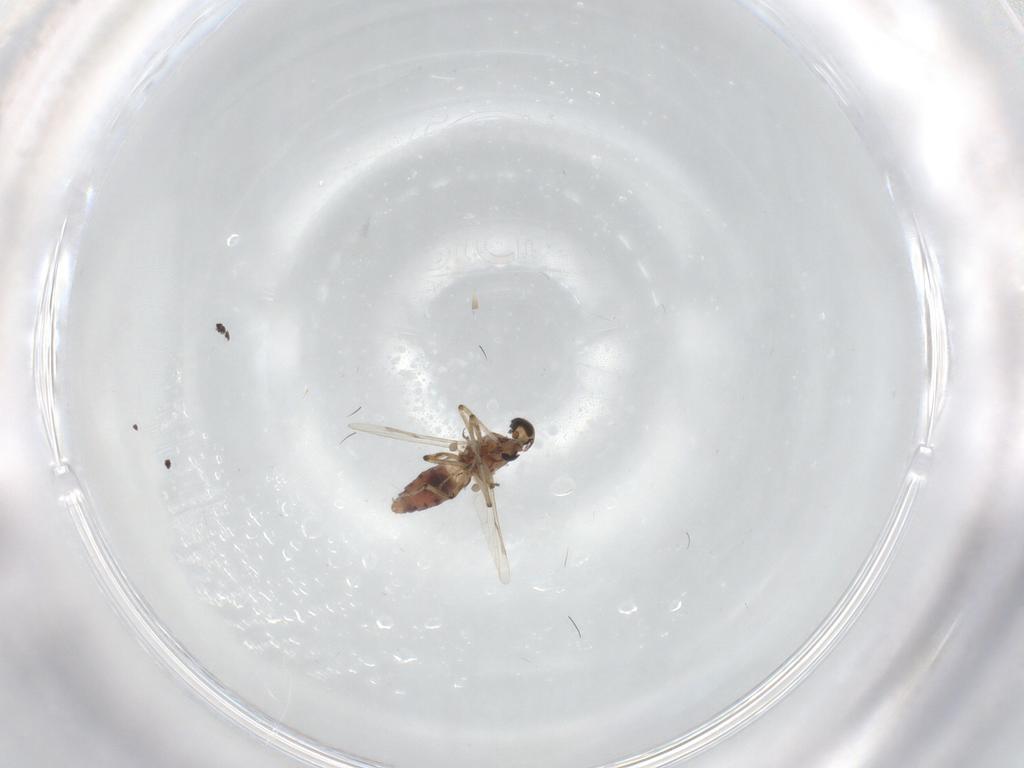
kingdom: Animalia
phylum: Arthropoda
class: Insecta
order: Diptera
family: Ceratopogonidae
